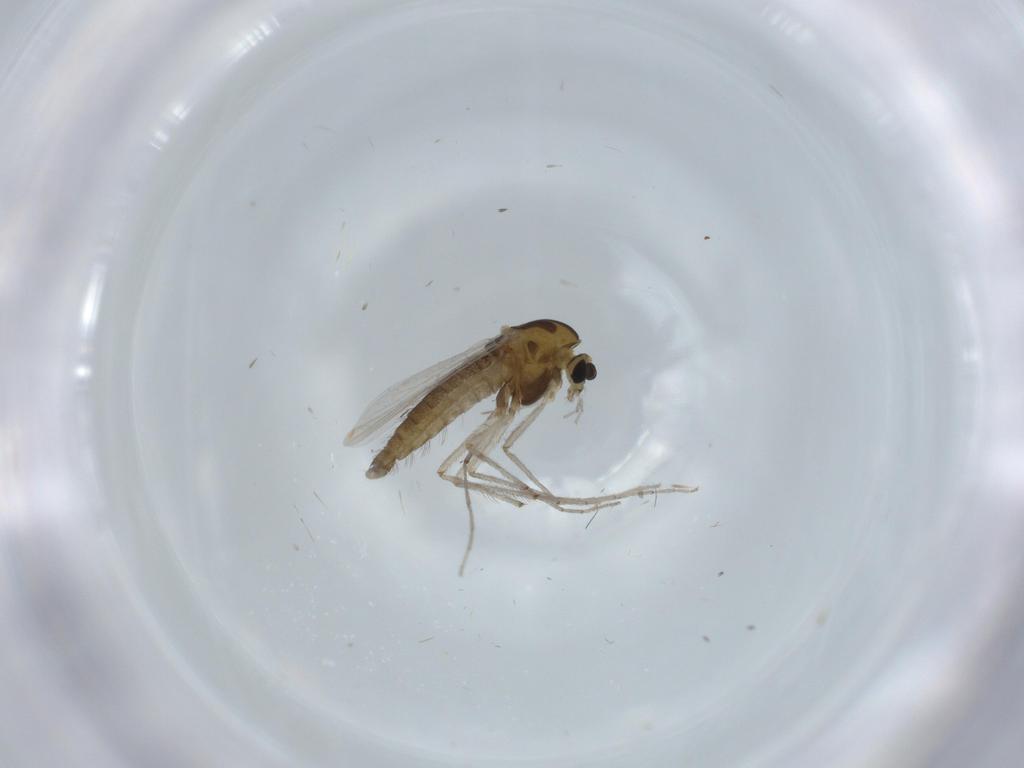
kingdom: Animalia
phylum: Arthropoda
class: Insecta
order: Diptera
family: Chironomidae
